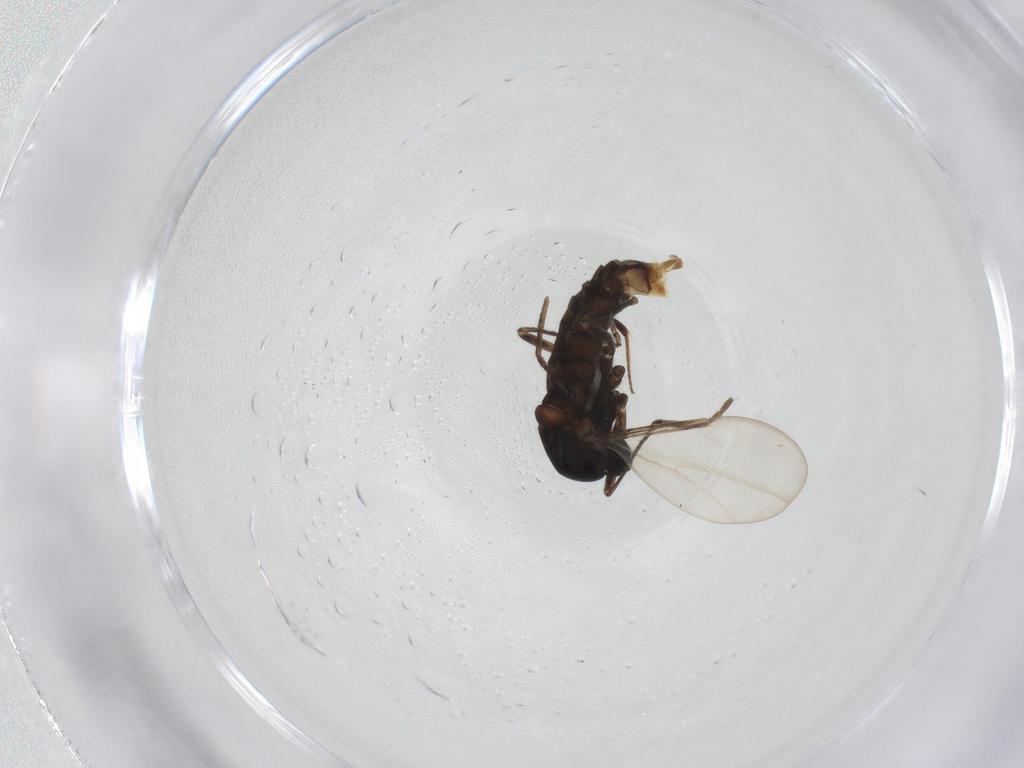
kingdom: Animalia
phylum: Arthropoda
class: Insecta
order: Diptera
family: Cecidomyiidae
